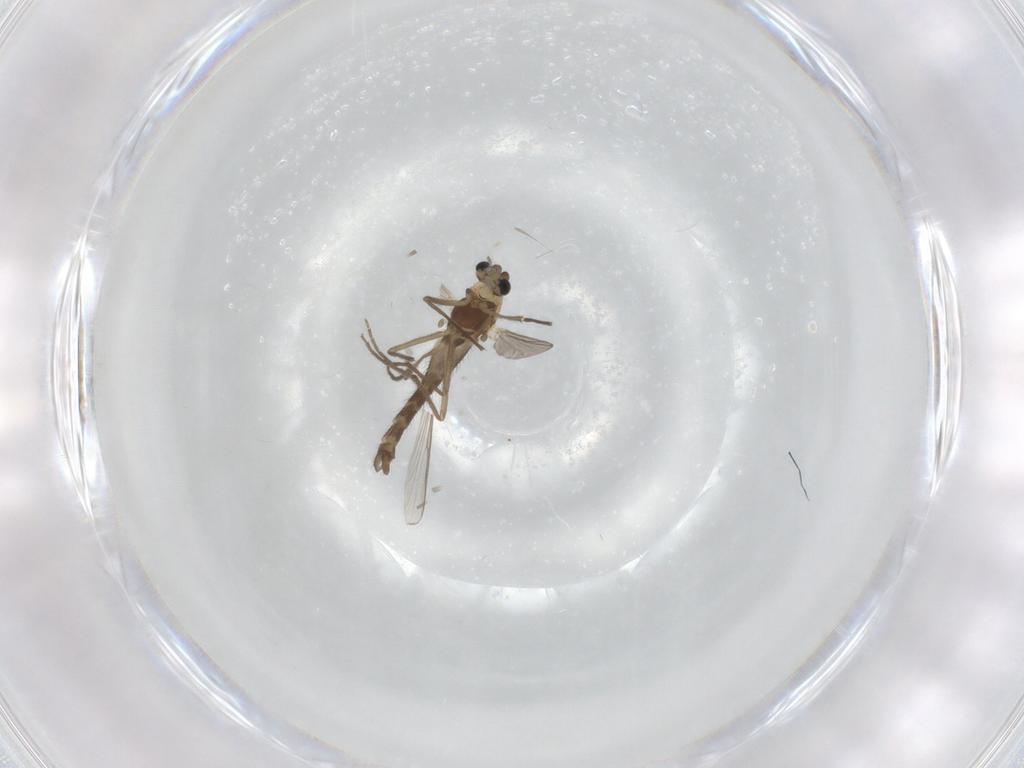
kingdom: Animalia
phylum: Arthropoda
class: Insecta
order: Diptera
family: Chironomidae
